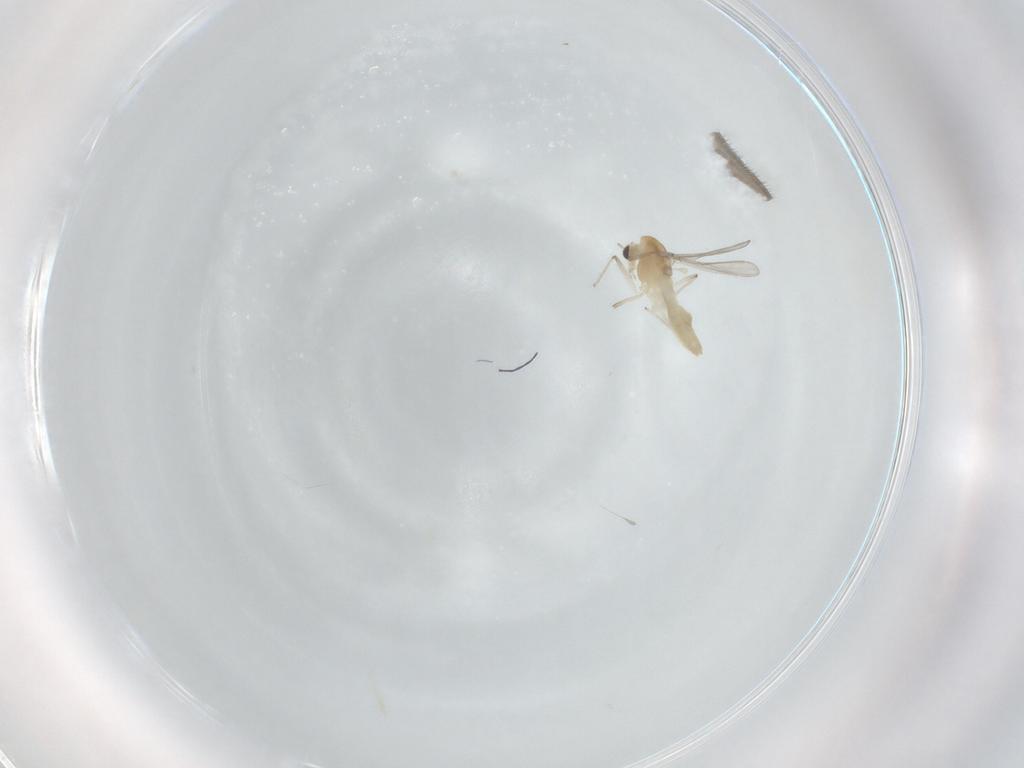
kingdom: Animalia
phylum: Arthropoda
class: Insecta
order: Diptera
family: Chironomidae
